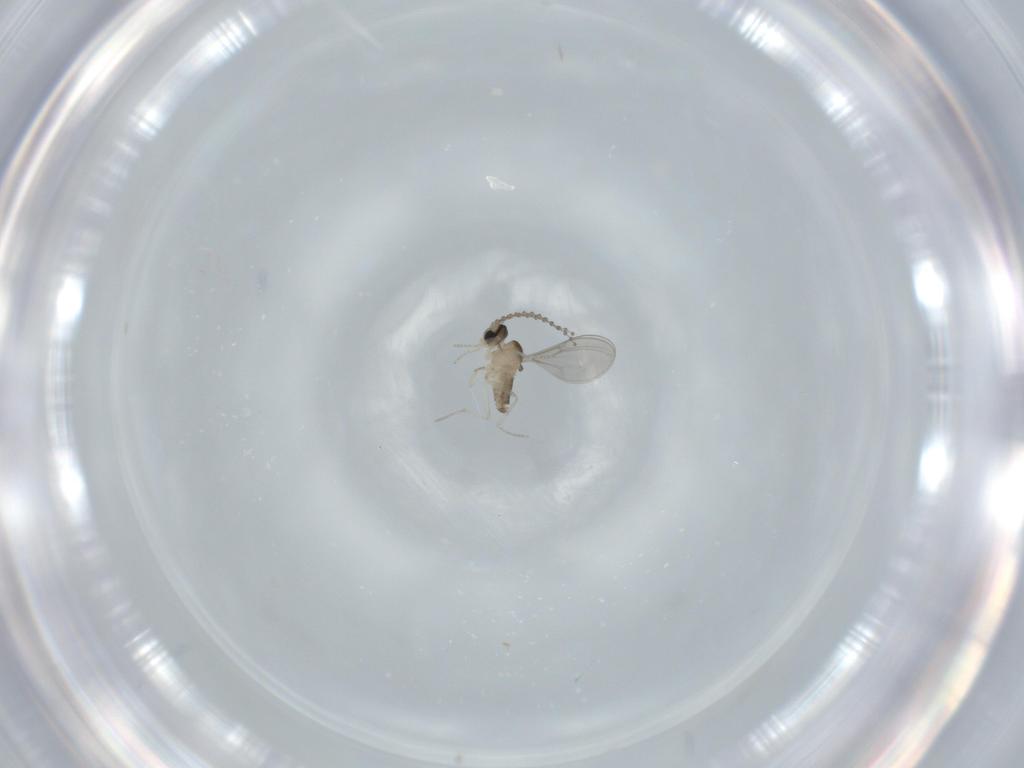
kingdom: Animalia
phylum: Arthropoda
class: Insecta
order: Diptera
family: Cecidomyiidae
